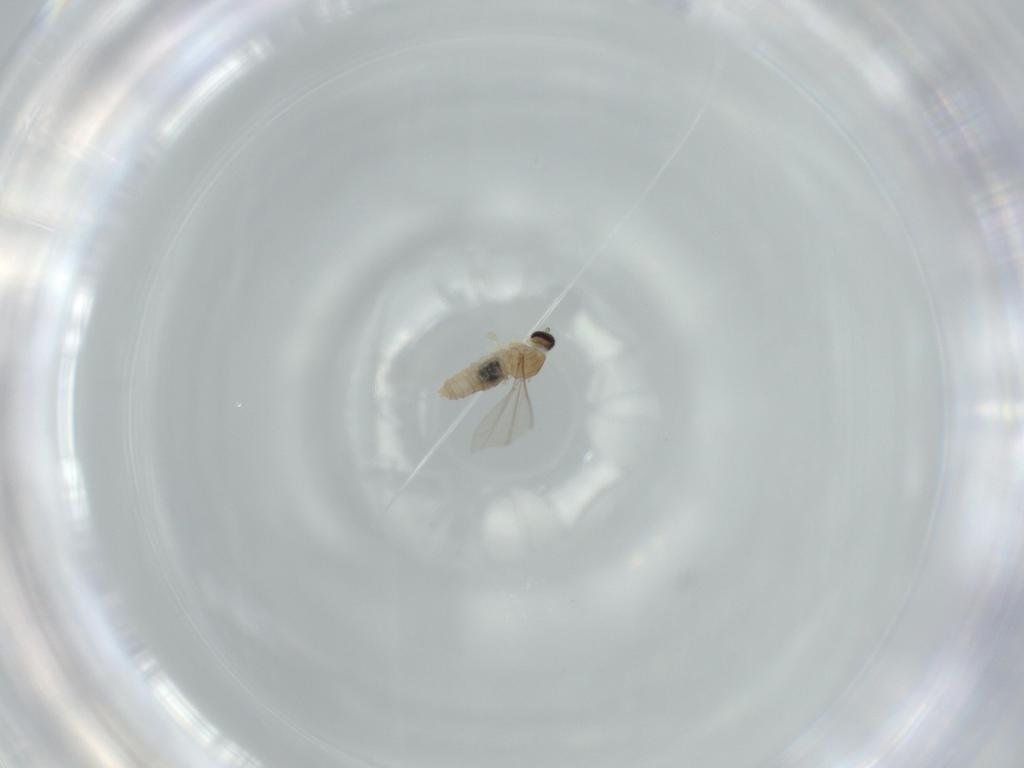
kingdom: Animalia
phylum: Arthropoda
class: Insecta
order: Diptera
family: Cecidomyiidae
